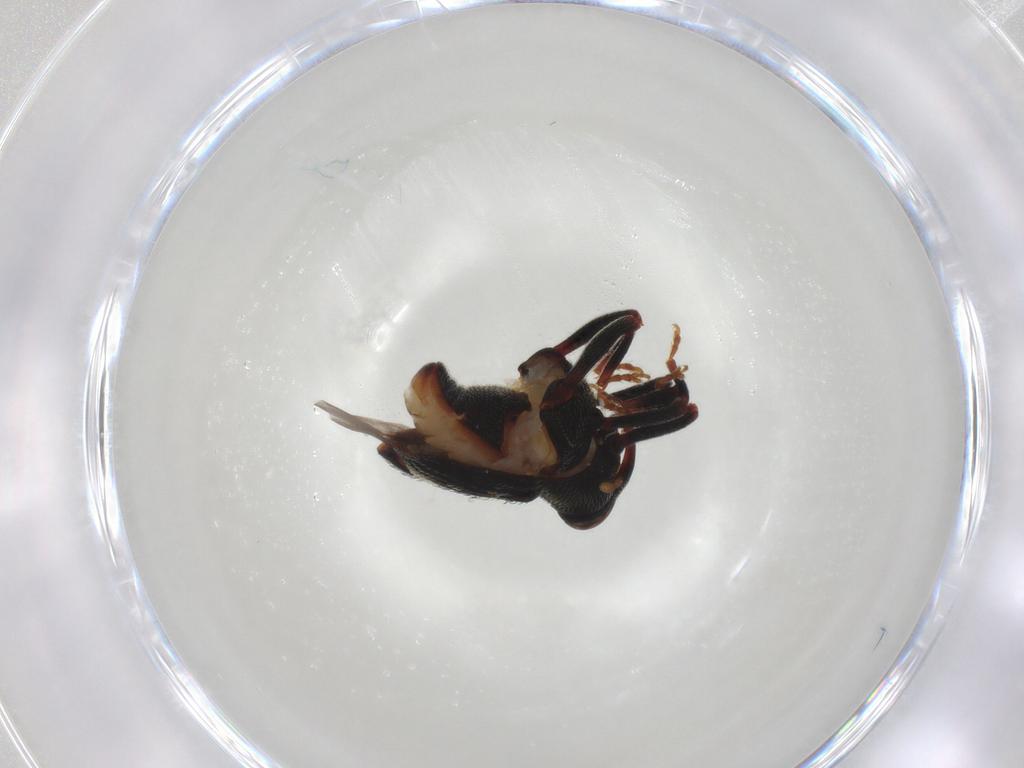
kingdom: Animalia
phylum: Arthropoda
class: Insecta
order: Coleoptera
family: Curculionidae
